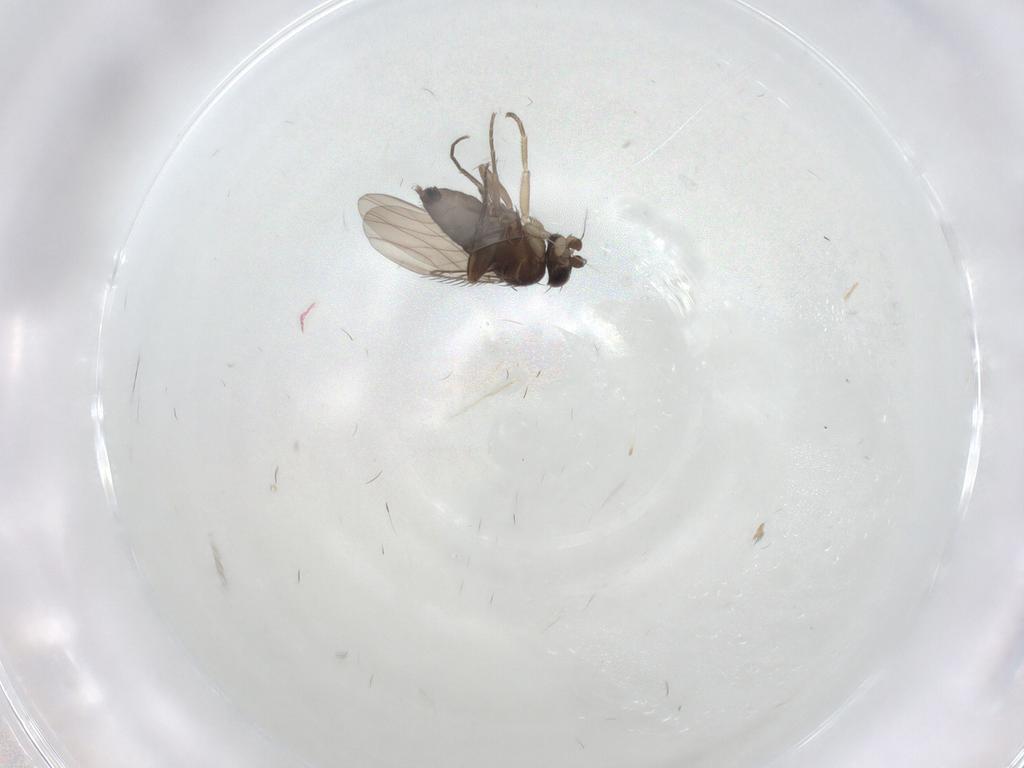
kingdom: Animalia
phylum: Arthropoda
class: Insecta
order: Diptera
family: Phoridae
